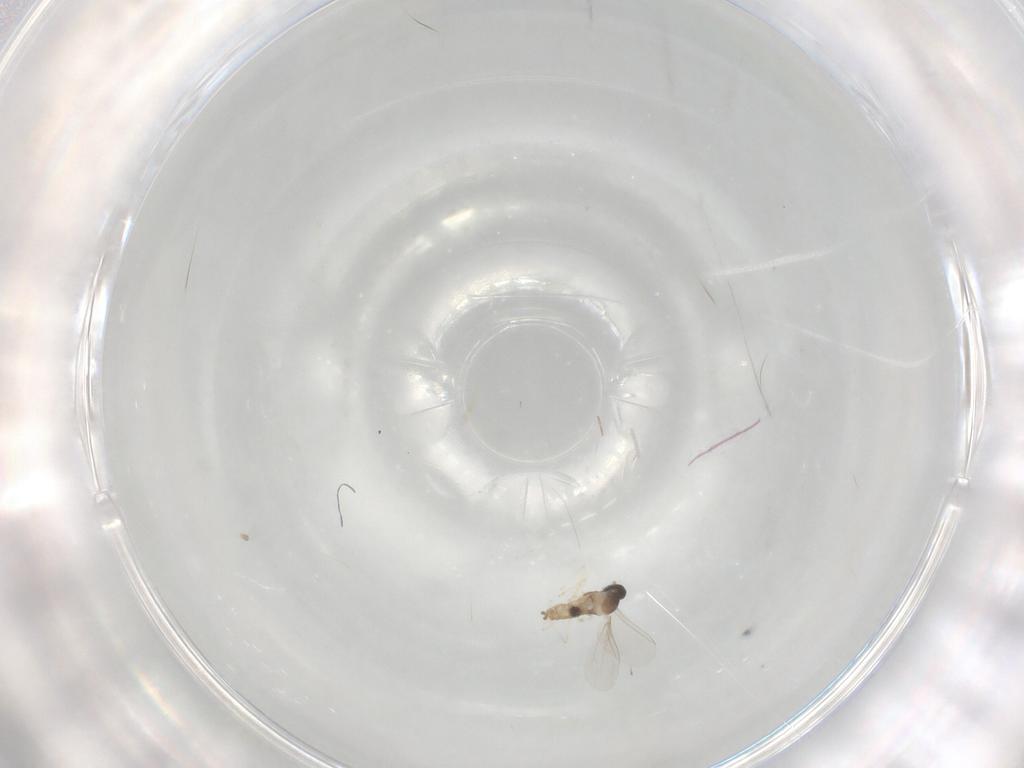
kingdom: Animalia
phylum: Arthropoda
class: Insecta
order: Diptera
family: Cecidomyiidae
